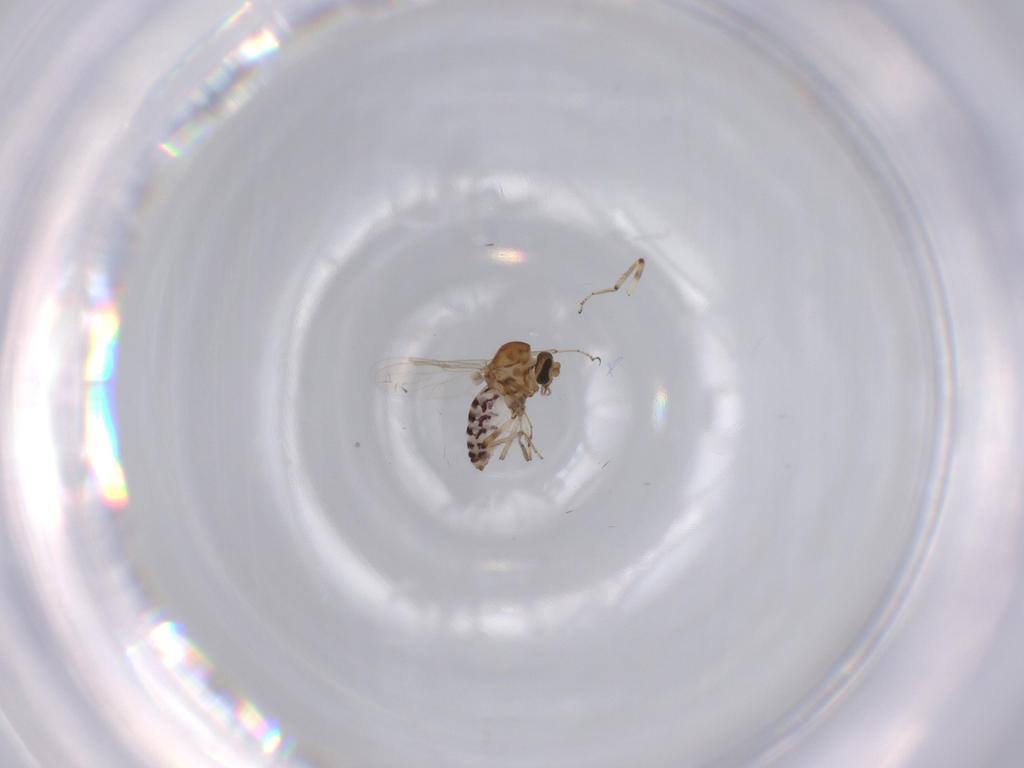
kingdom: Animalia
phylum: Arthropoda
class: Insecta
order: Diptera
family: Ceratopogonidae
